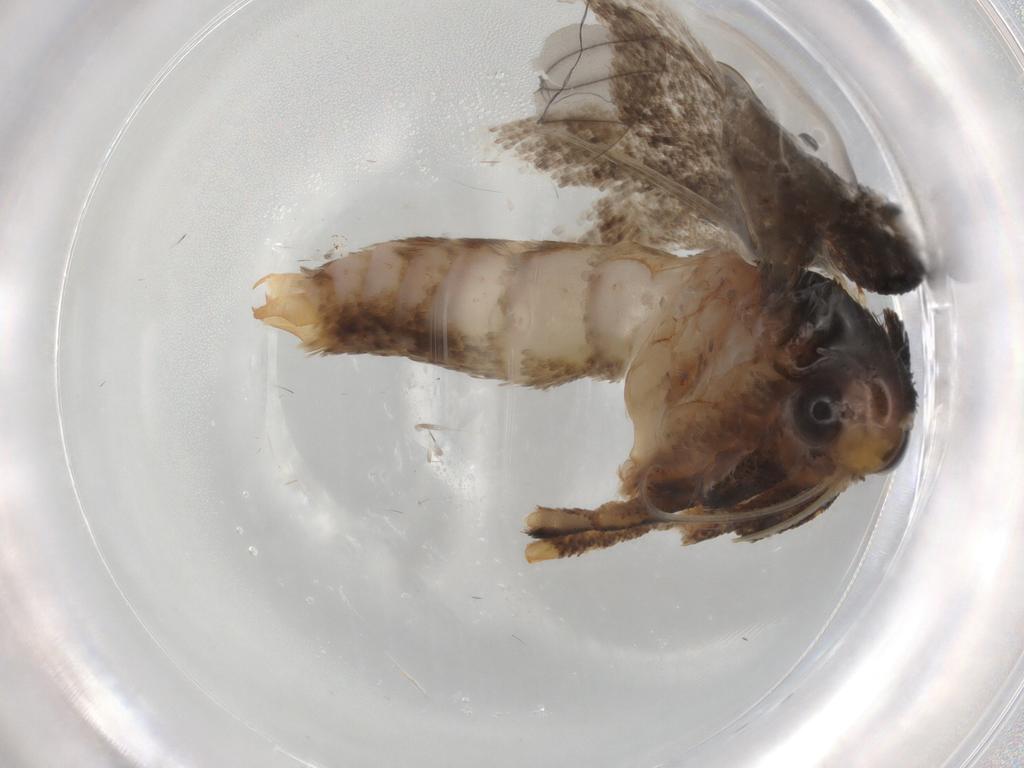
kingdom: Animalia
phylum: Arthropoda
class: Insecta
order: Lepidoptera
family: Oecophoridae
